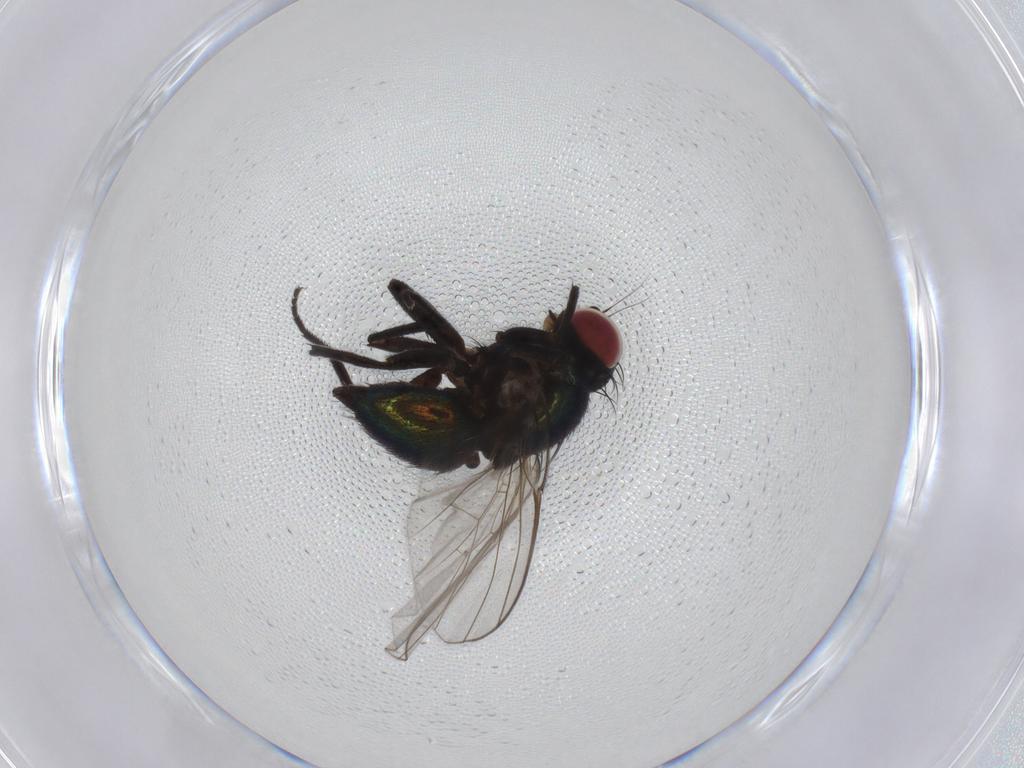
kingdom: Animalia
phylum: Arthropoda
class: Insecta
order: Diptera
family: Agromyzidae
